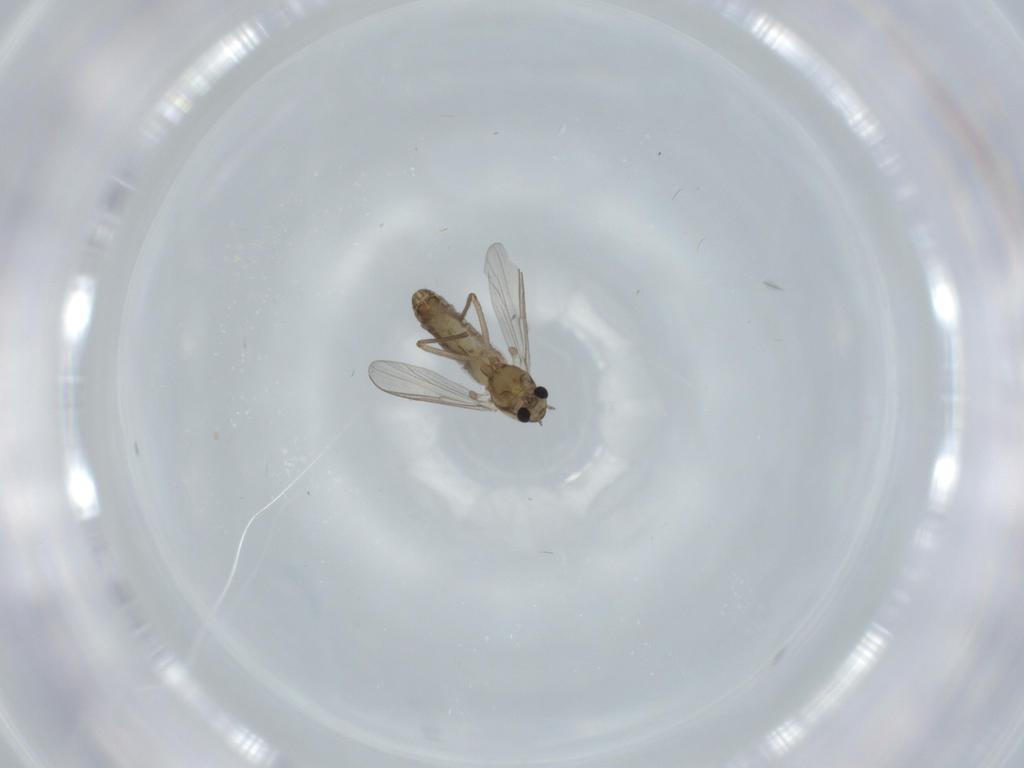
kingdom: Animalia
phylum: Arthropoda
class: Insecta
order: Diptera
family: Chironomidae
